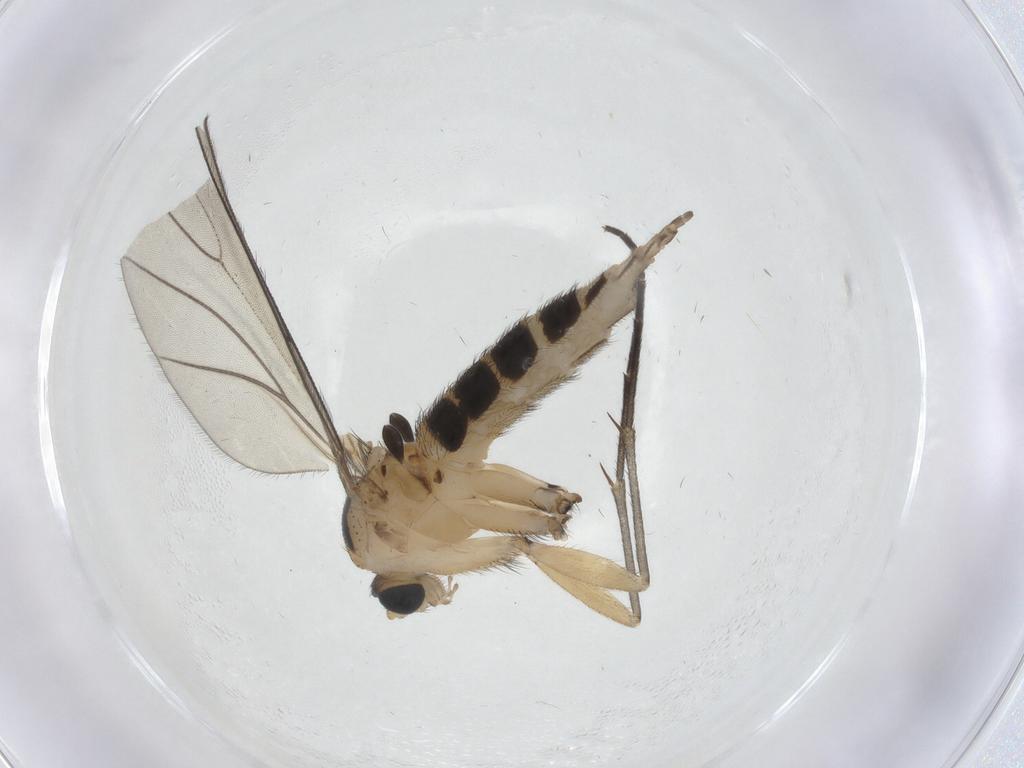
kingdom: Animalia
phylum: Arthropoda
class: Insecta
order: Diptera
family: Sciaridae
